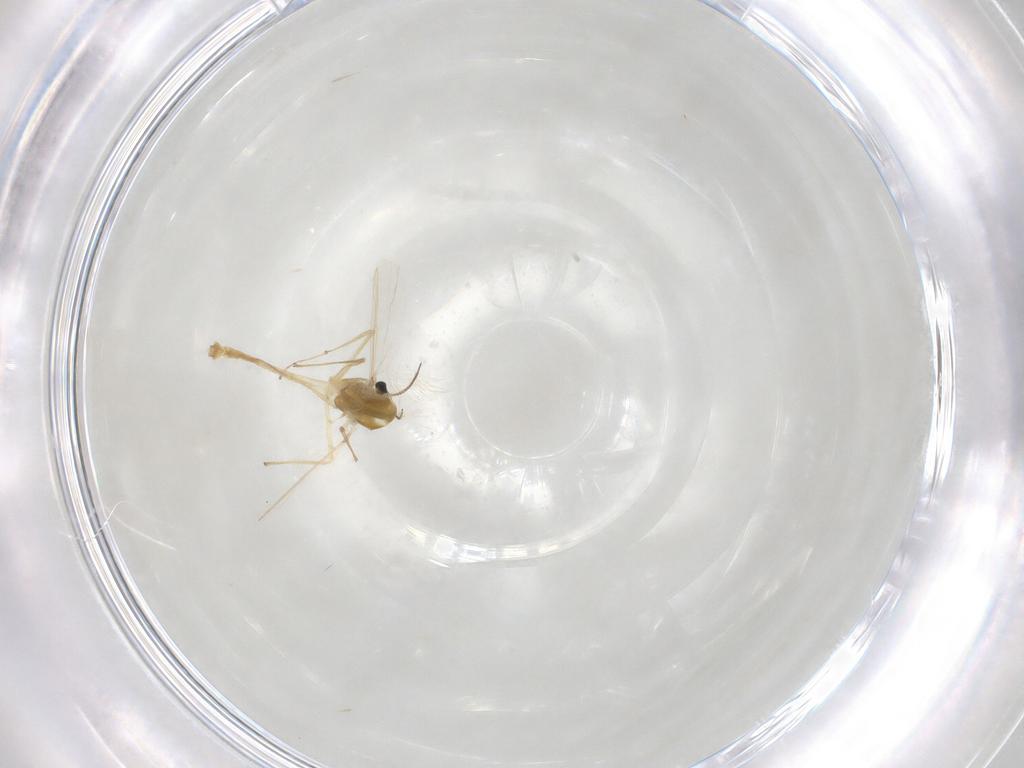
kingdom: Animalia
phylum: Arthropoda
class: Insecta
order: Diptera
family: Chironomidae
